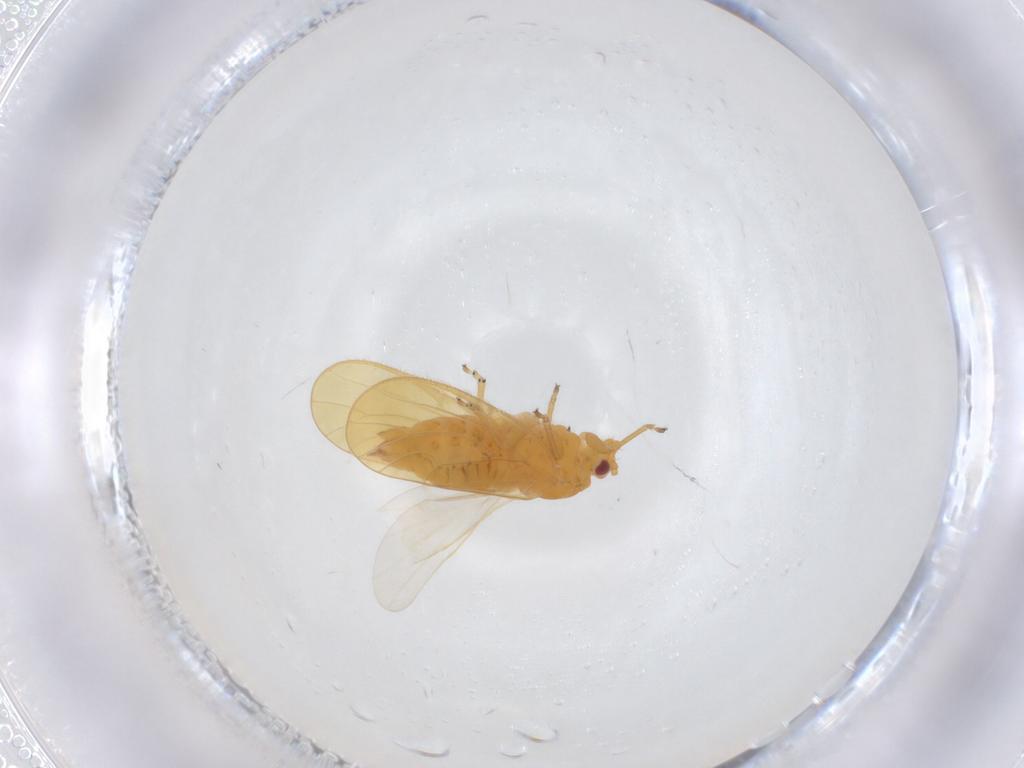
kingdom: Animalia
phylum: Arthropoda
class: Insecta
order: Hemiptera
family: Psyllidae
